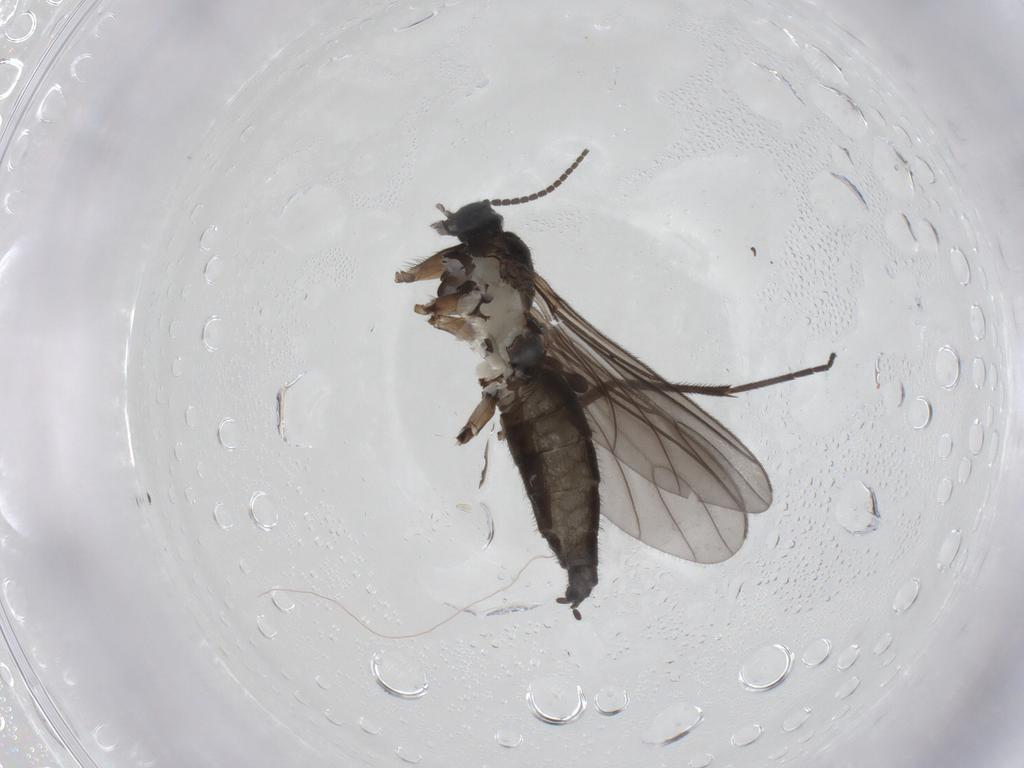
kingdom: Animalia
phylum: Arthropoda
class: Insecta
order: Diptera
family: Sciaridae
